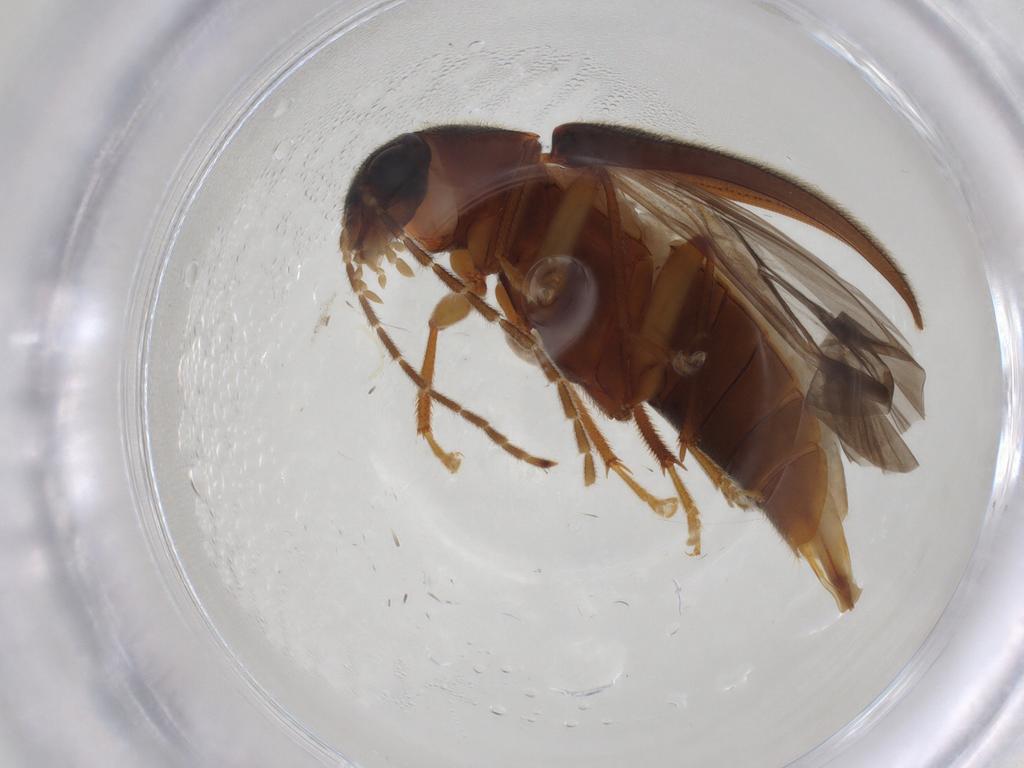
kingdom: Animalia
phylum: Arthropoda
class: Insecta
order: Coleoptera
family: Ptilodactylidae
